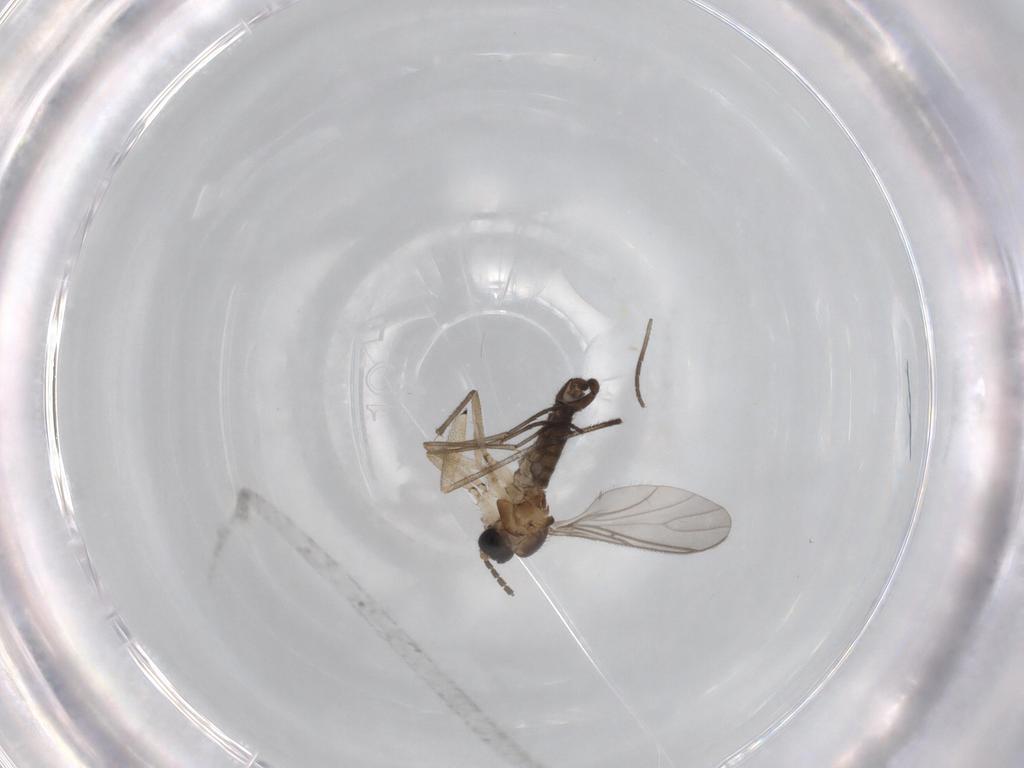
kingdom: Animalia
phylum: Arthropoda
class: Insecta
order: Diptera
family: Sciaridae
